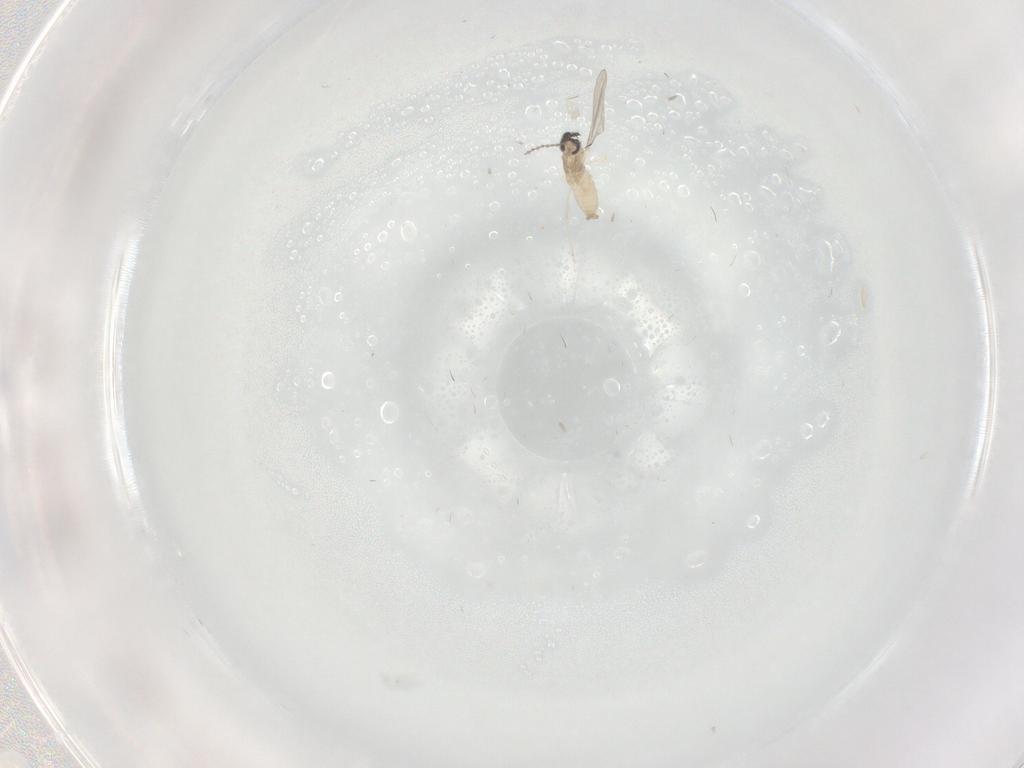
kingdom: Animalia
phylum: Arthropoda
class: Insecta
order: Diptera
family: Cecidomyiidae
